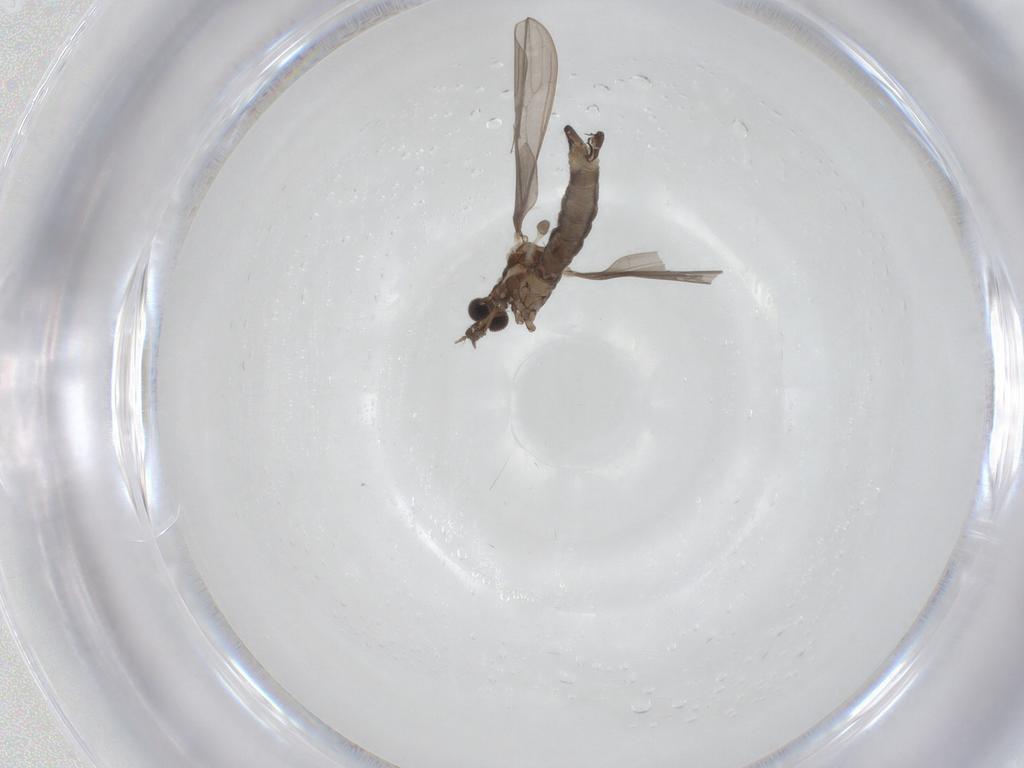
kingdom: Animalia
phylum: Arthropoda
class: Insecta
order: Diptera
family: Limoniidae
